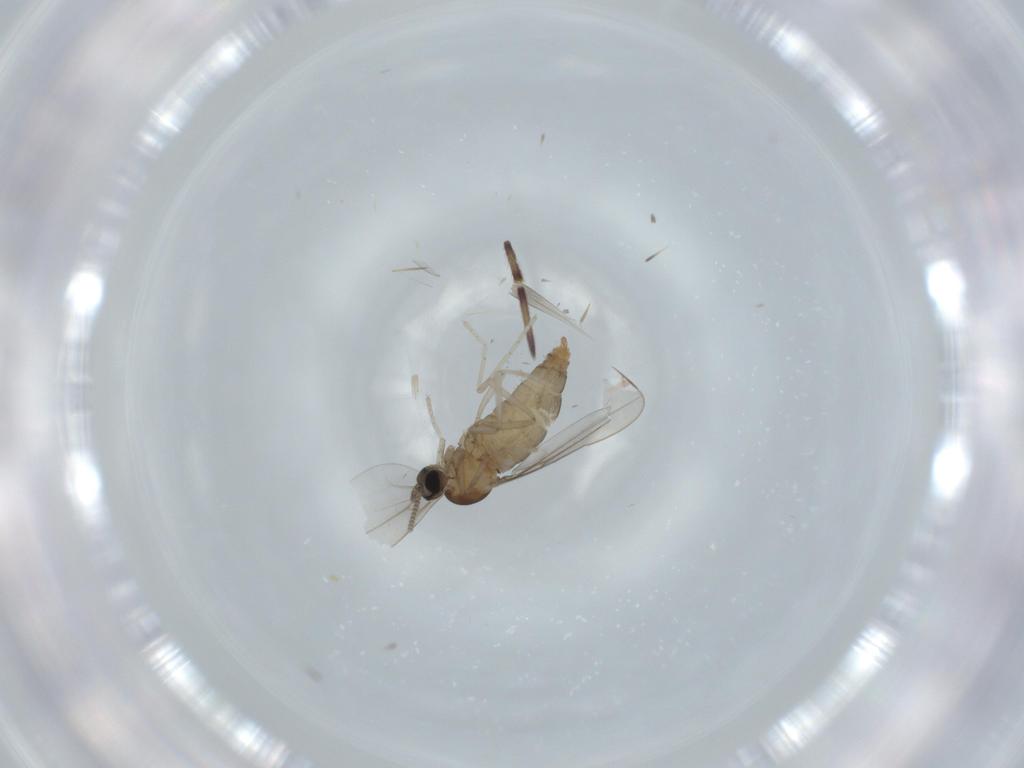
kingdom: Animalia
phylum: Arthropoda
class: Insecta
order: Diptera
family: Cecidomyiidae
